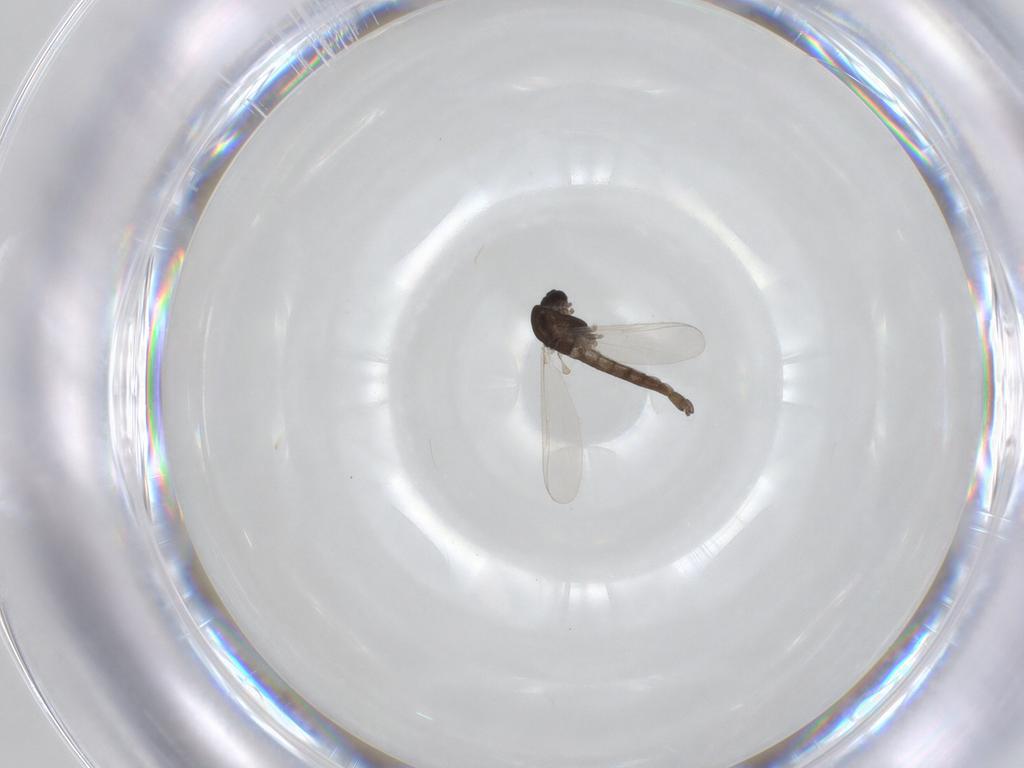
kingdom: Animalia
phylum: Arthropoda
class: Insecta
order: Diptera
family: Chironomidae
